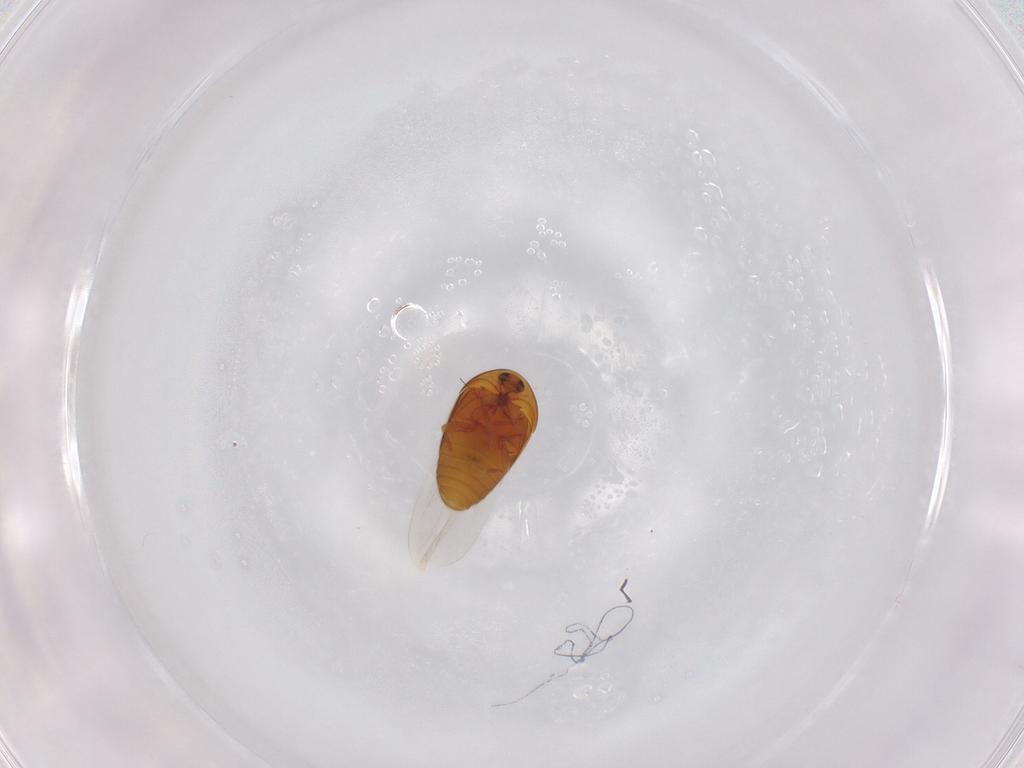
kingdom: Animalia
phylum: Arthropoda
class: Insecta
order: Coleoptera
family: Corylophidae
